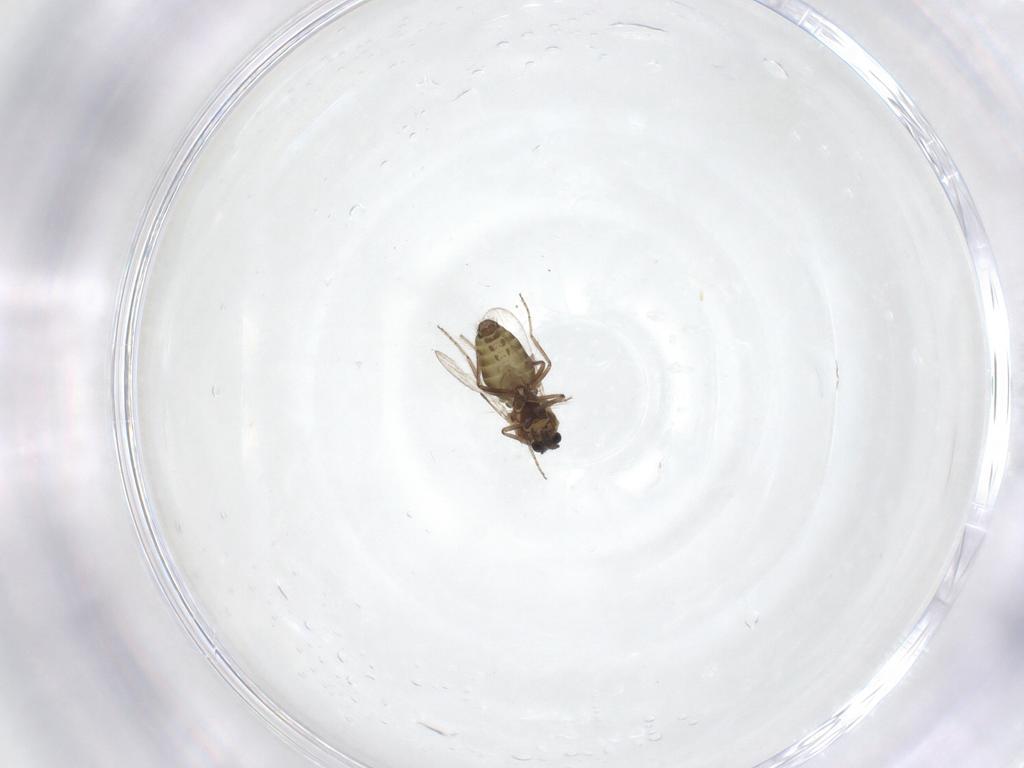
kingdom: Animalia
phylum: Arthropoda
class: Insecta
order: Diptera
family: Ceratopogonidae
